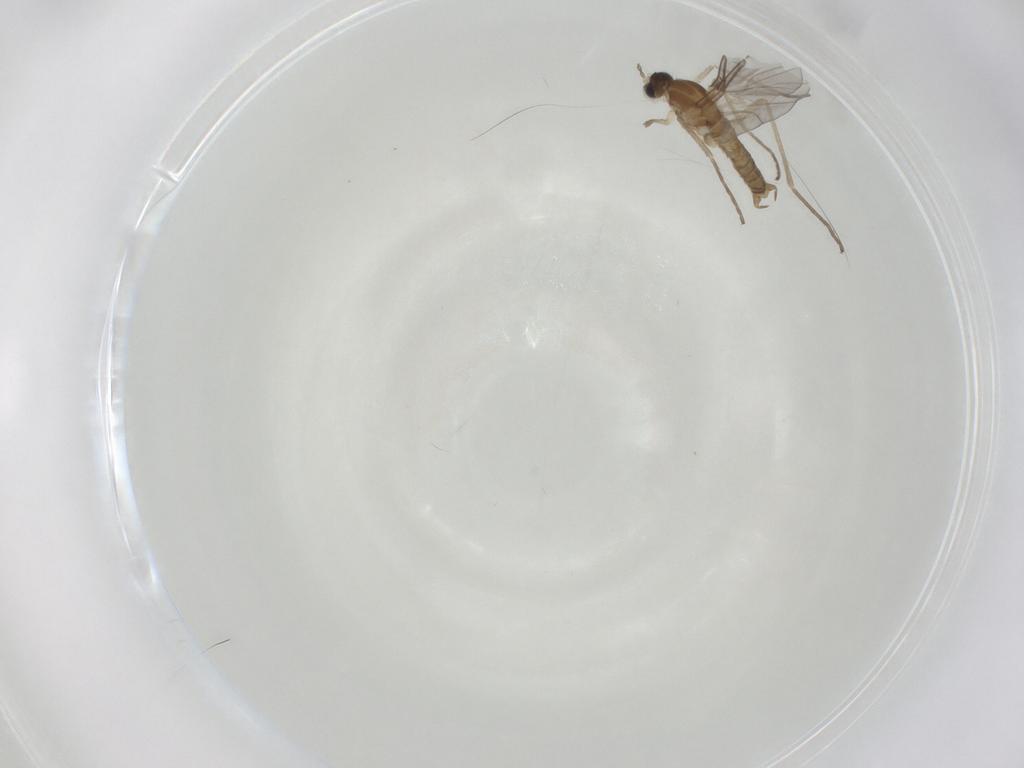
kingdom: Animalia
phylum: Arthropoda
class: Insecta
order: Diptera
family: Cecidomyiidae
